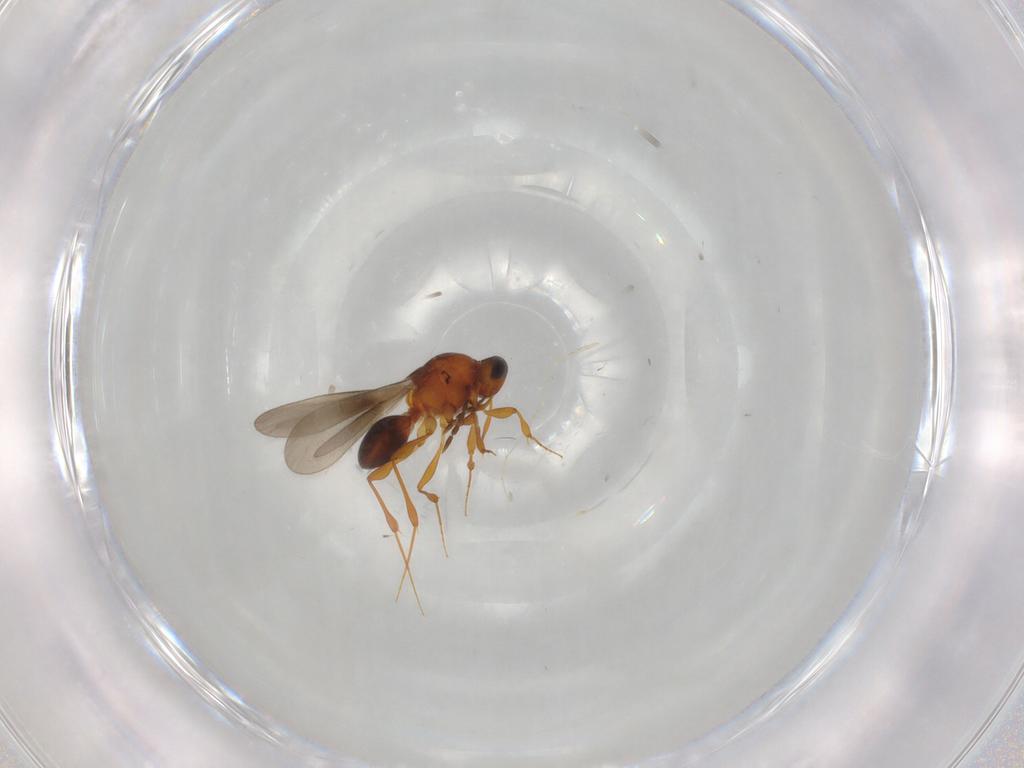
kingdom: Animalia
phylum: Arthropoda
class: Insecta
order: Hymenoptera
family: Platygastridae
